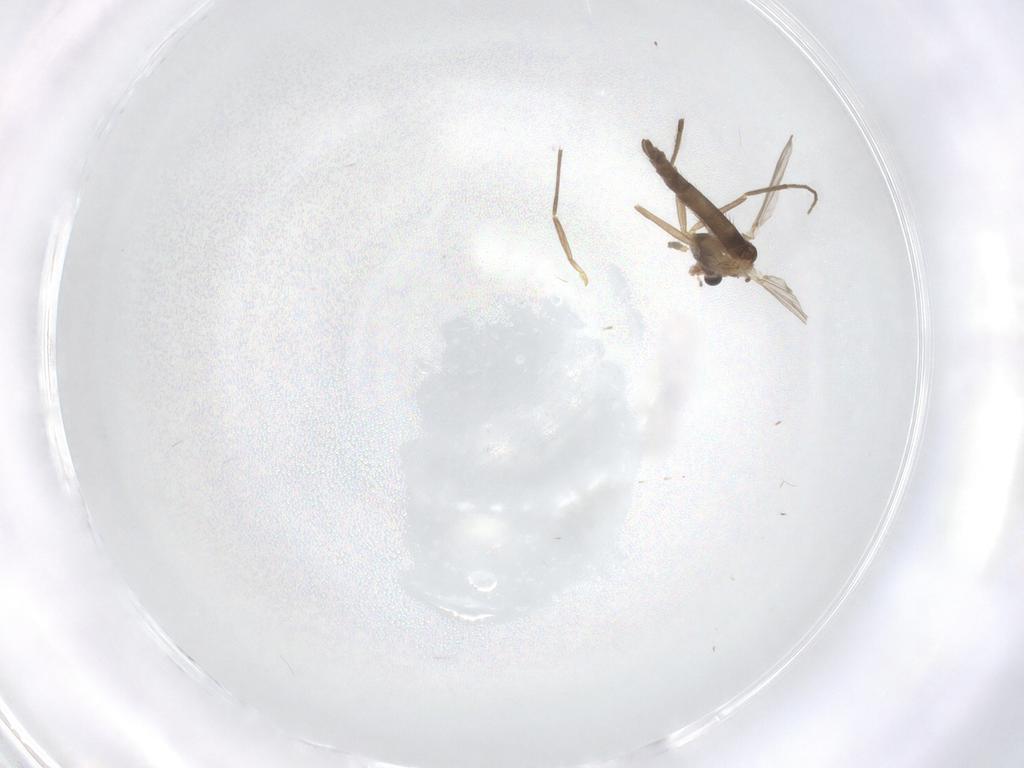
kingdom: Animalia
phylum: Arthropoda
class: Insecta
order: Diptera
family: Chironomidae
